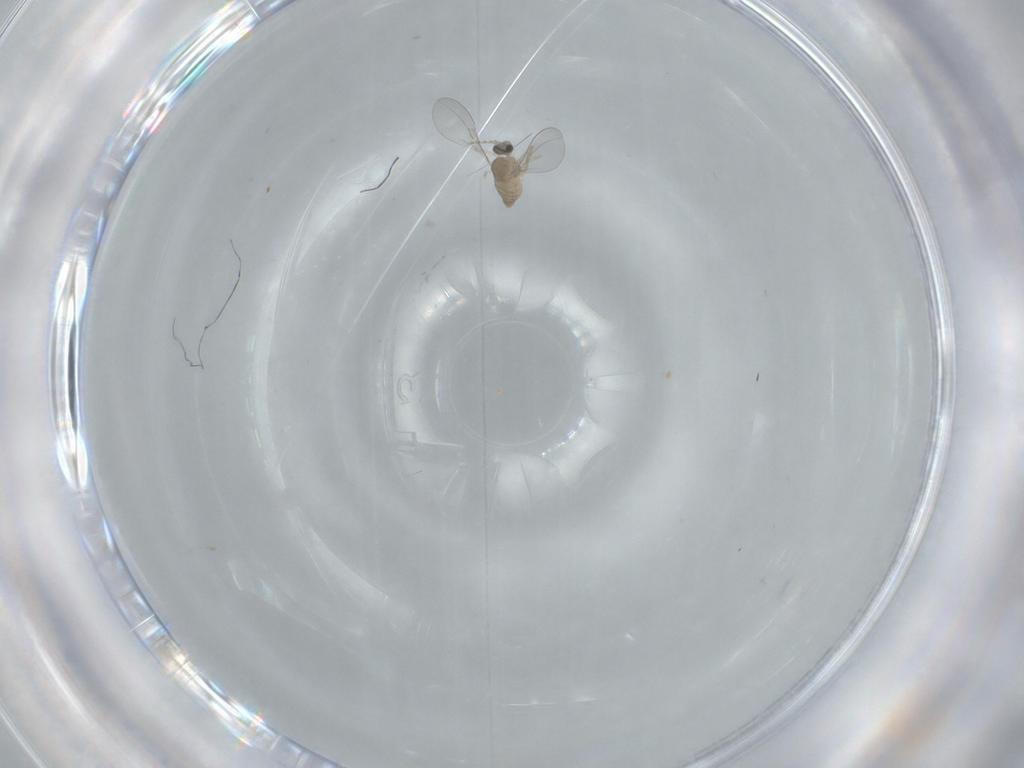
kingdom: Animalia
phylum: Arthropoda
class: Insecta
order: Diptera
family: Cecidomyiidae
